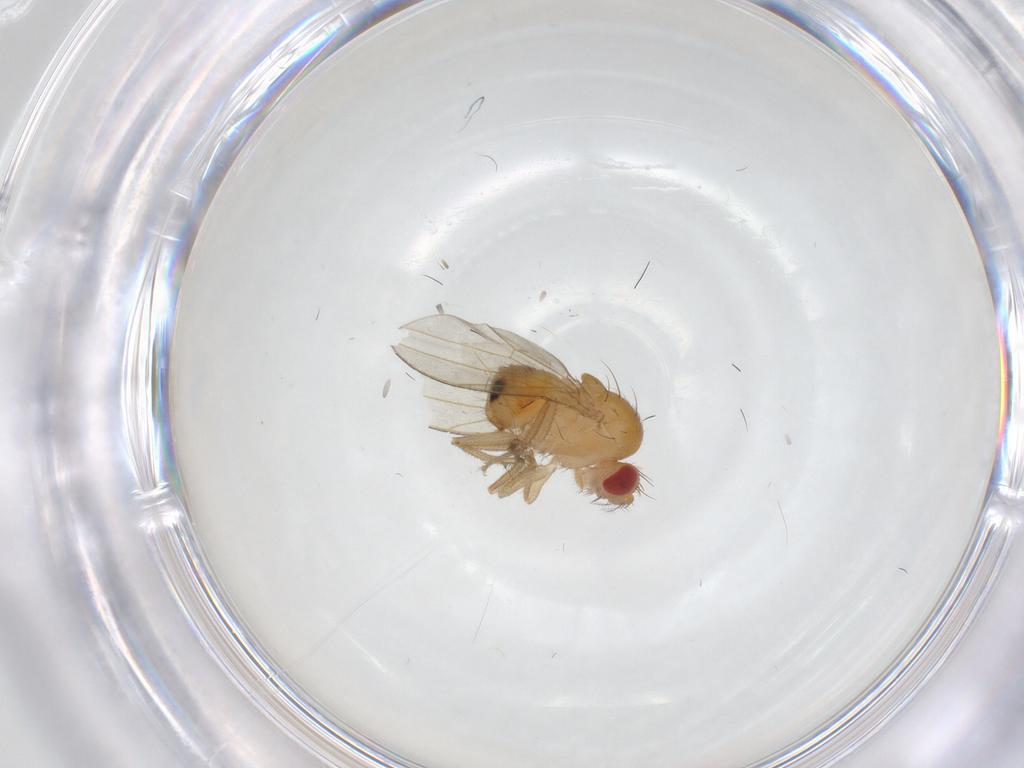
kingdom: Animalia
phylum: Arthropoda
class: Insecta
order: Diptera
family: Drosophilidae
